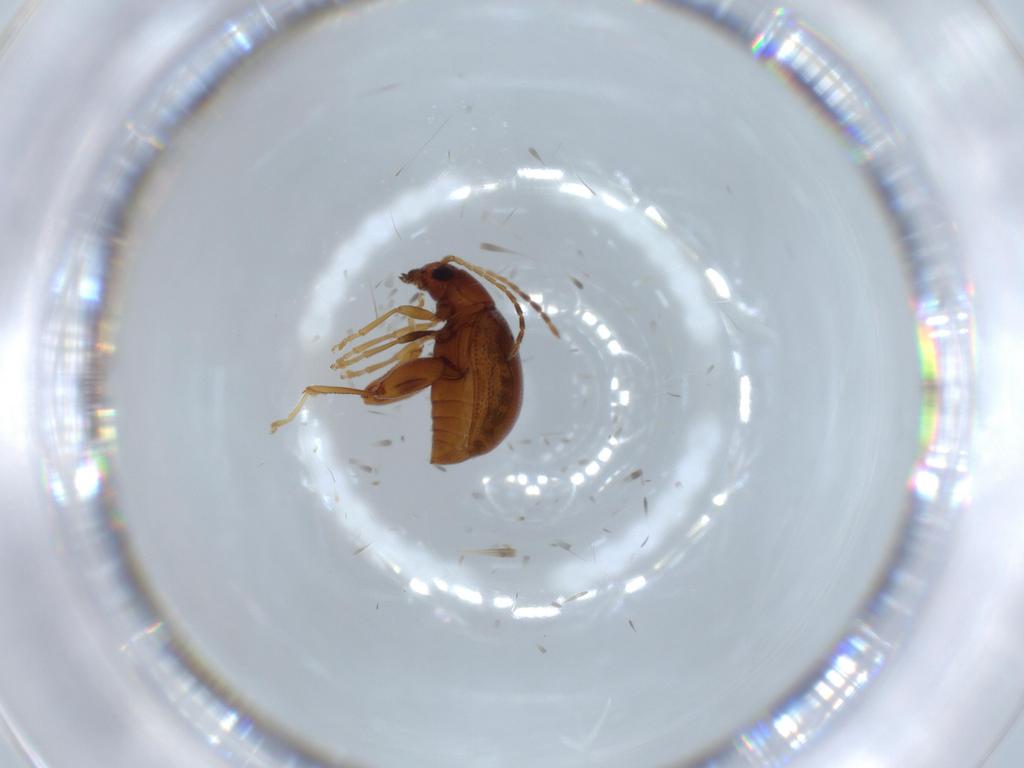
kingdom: Animalia
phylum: Arthropoda
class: Insecta
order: Coleoptera
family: Chrysomelidae
